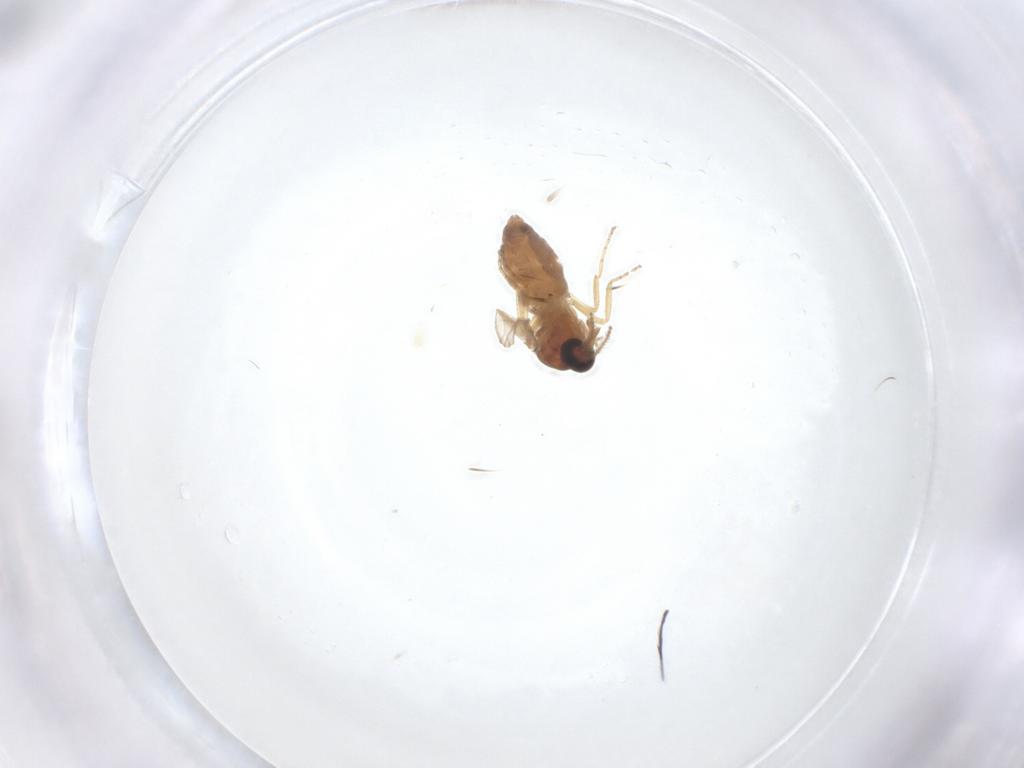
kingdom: Animalia
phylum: Arthropoda
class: Insecta
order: Diptera
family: Ceratopogonidae
